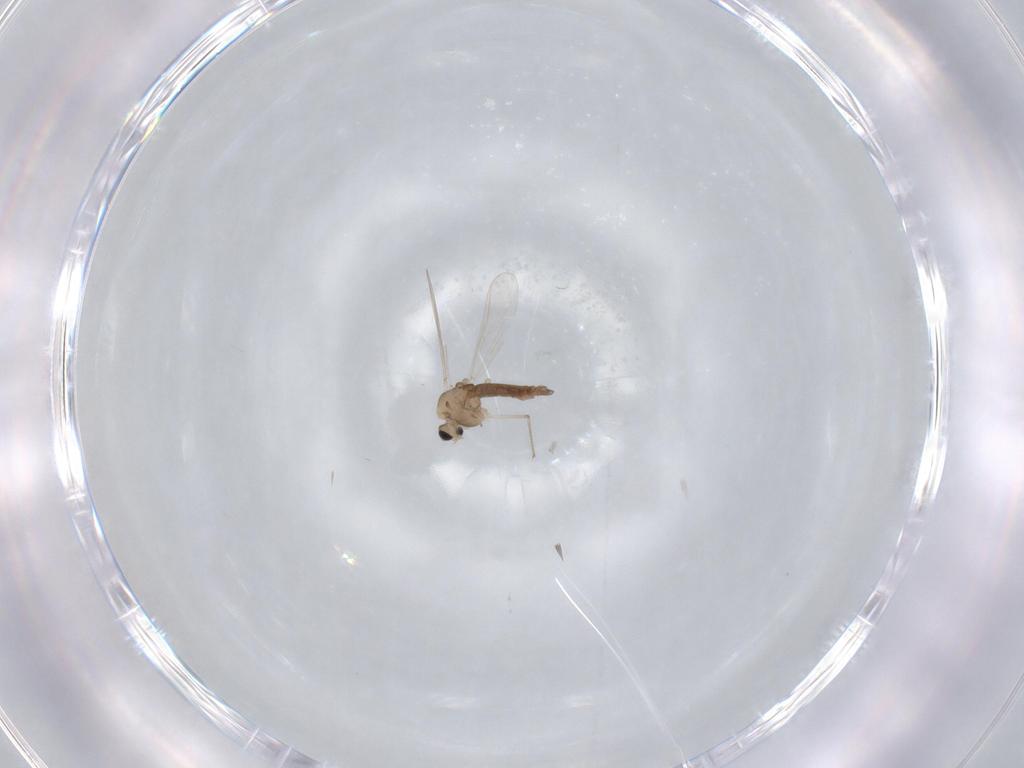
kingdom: Animalia
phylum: Arthropoda
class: Insecta
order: Diptera
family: Chironomidae
